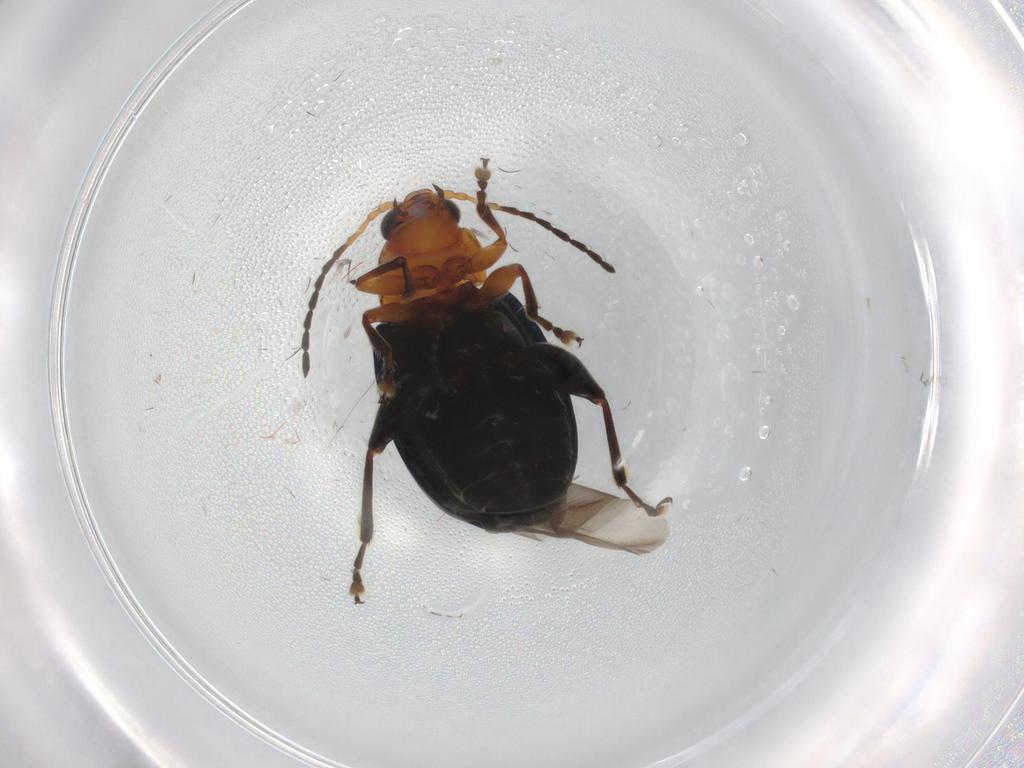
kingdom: Animalia
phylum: Arthropoda
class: Insecta
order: Coleoptera
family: Chrysomelidae
